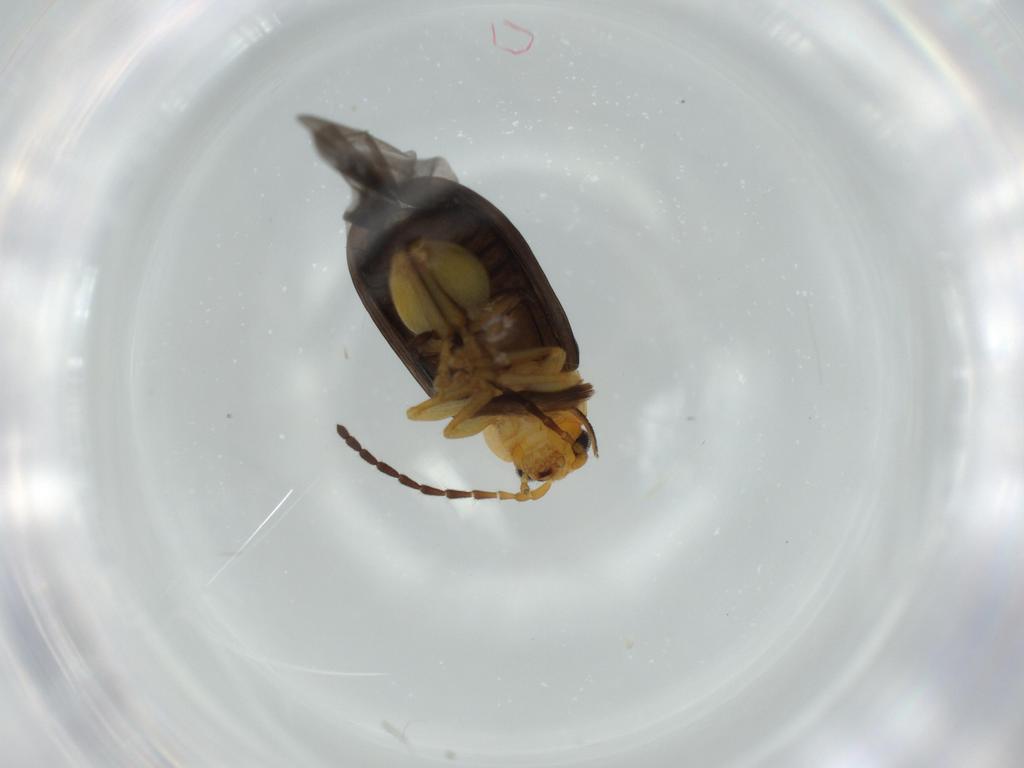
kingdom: Animalia
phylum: Arthropoda
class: Insecta
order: Coleoptera
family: Chrysomelidae
